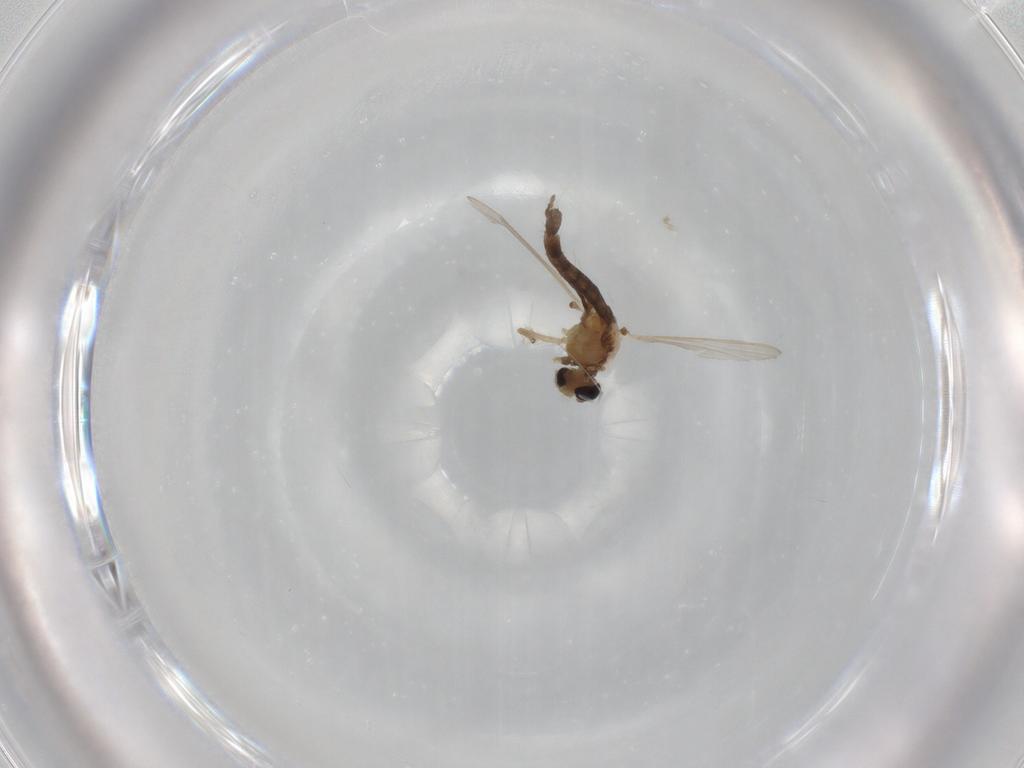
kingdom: Animalia
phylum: Arthropoda
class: Insecta
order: Diptera
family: Chironomidae
